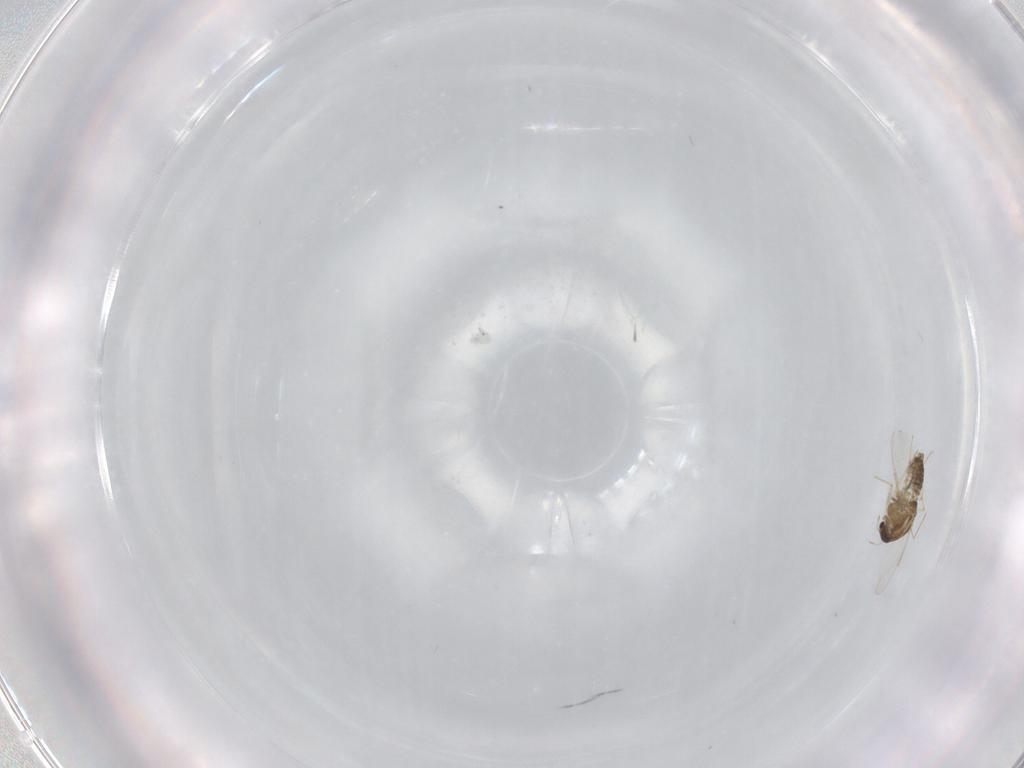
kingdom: Animalia
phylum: Arthropoda
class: Insecta
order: Diptera
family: Chironomidae
